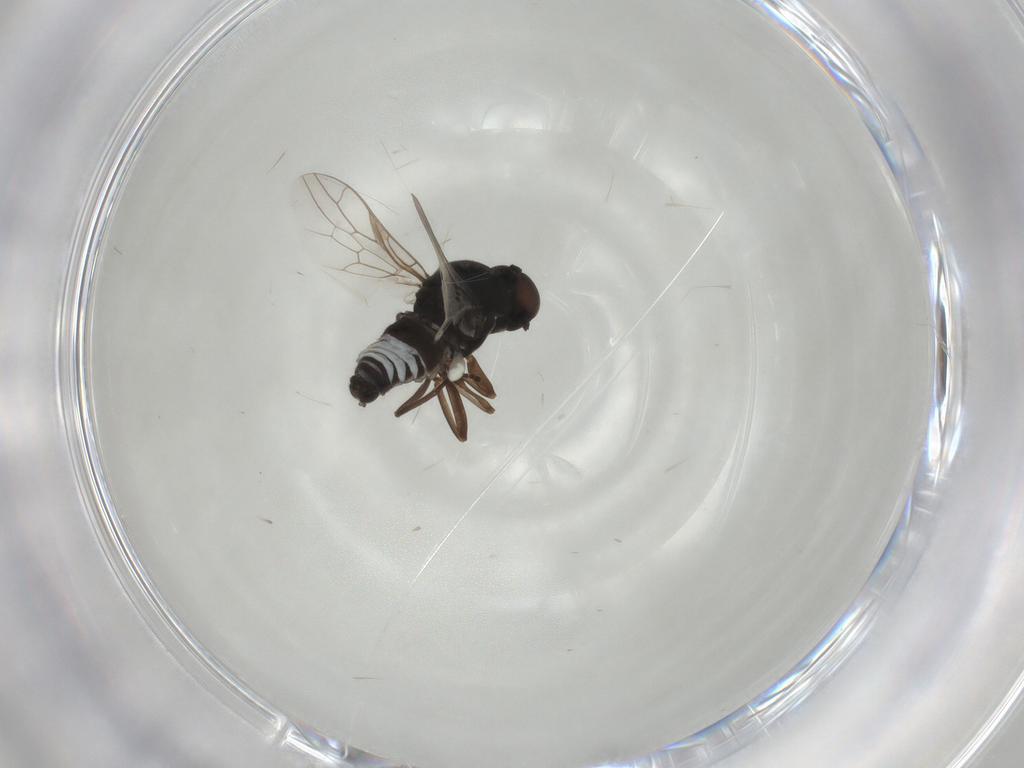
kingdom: Animalia
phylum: Arthropoda
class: Insecta
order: Diptera
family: Scenopinidae
